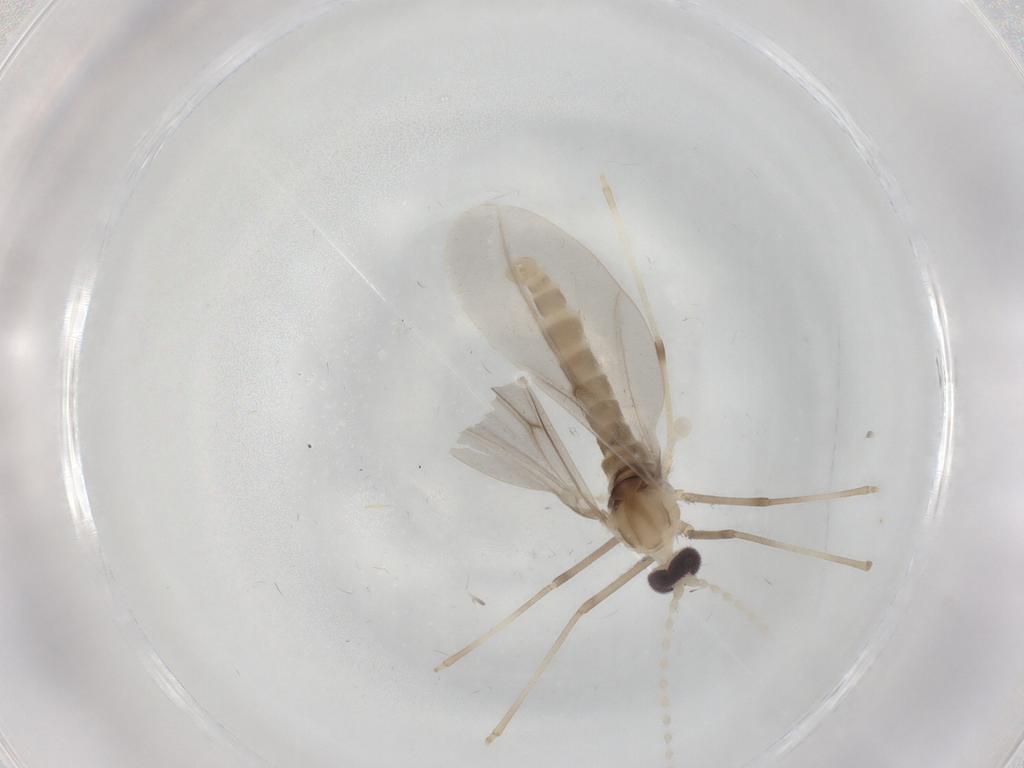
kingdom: Animalia
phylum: Arthropoda
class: Insecta
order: Diptera
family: Cecidomyiidae
